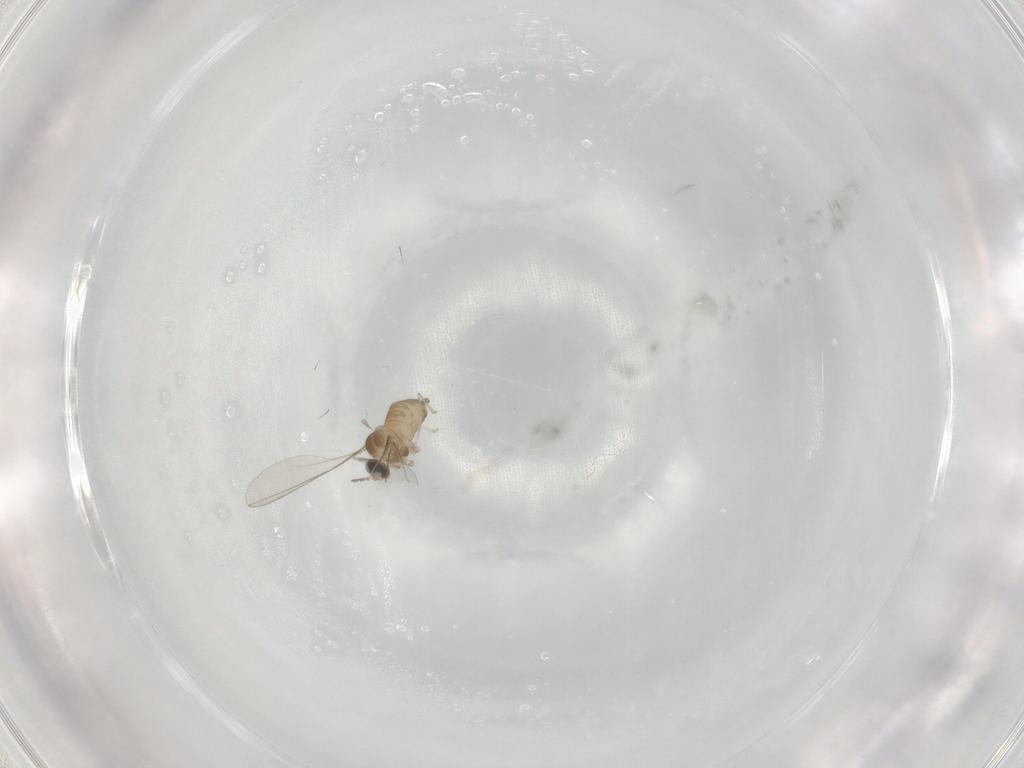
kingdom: Animalia
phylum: Arthropoda
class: Insecta
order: Diptera
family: Cecidomyiidae
